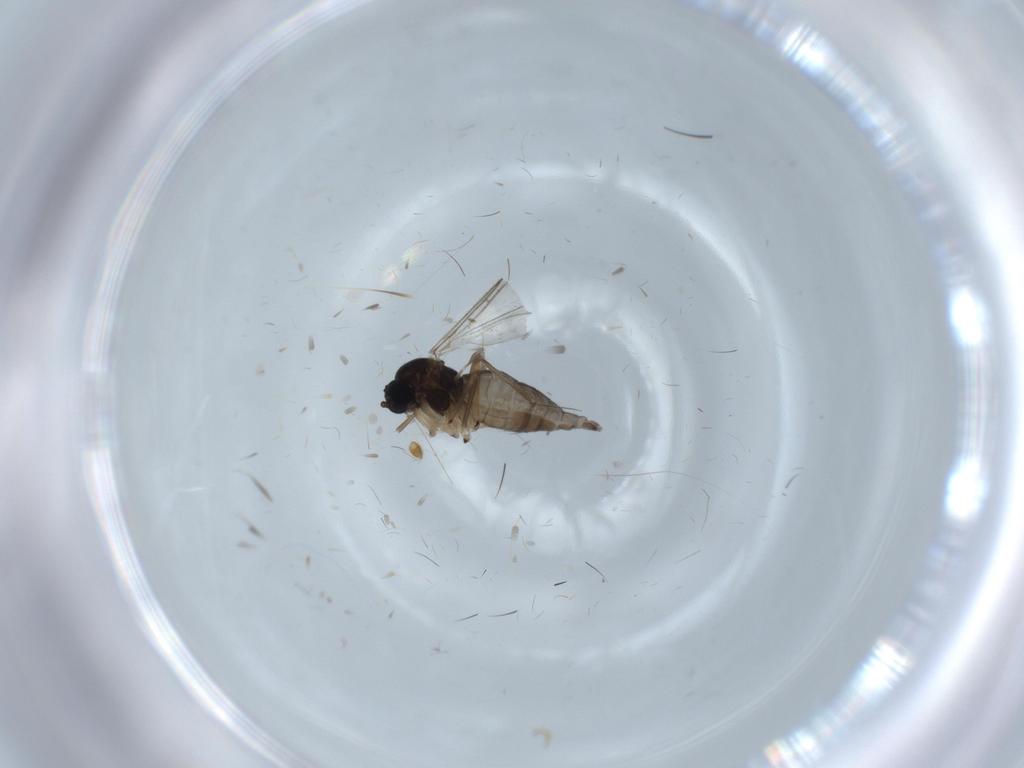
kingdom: Animalia
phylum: Arthropoda
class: Insecta
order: Diptera
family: Sciaridae
